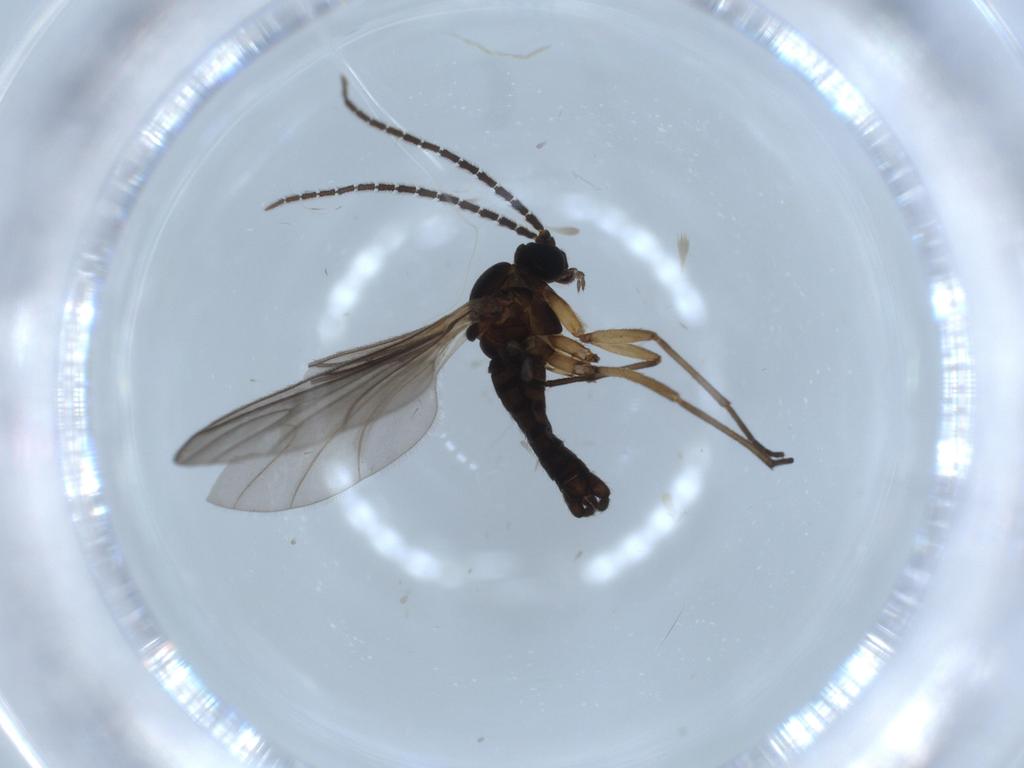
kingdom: Animalia
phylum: Arthropoda
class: Insecta
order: Diptera
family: Sciaridae
